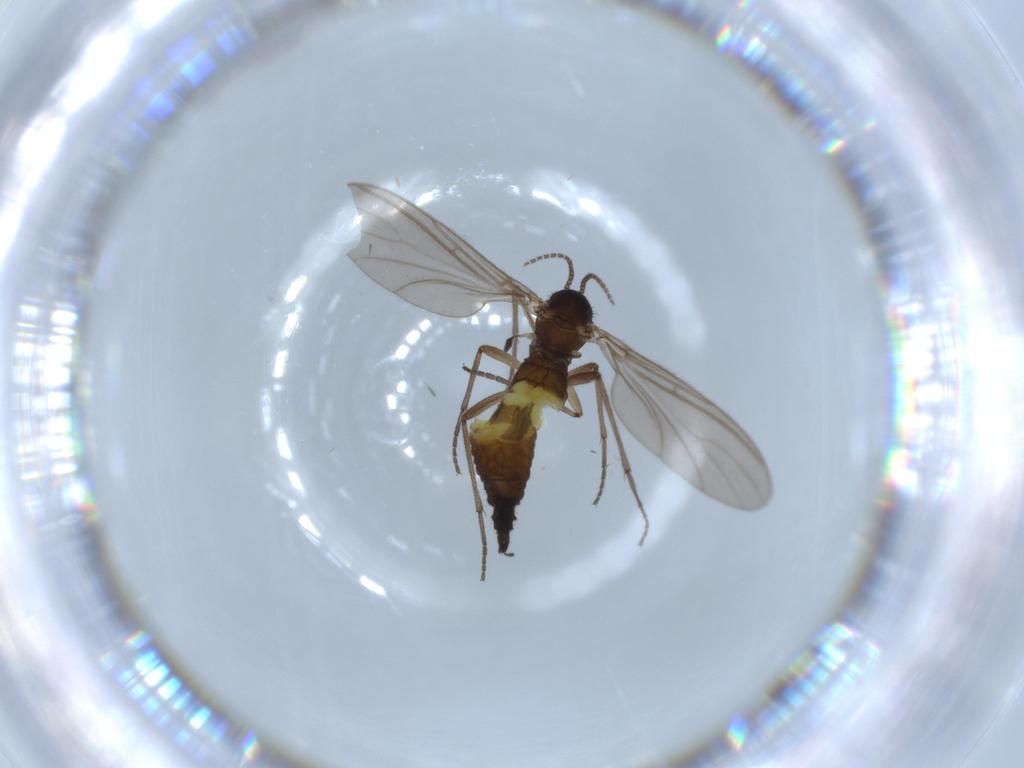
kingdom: Animalia
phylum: Arthropoda
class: Insecta
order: Diptera
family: Sciaridae
